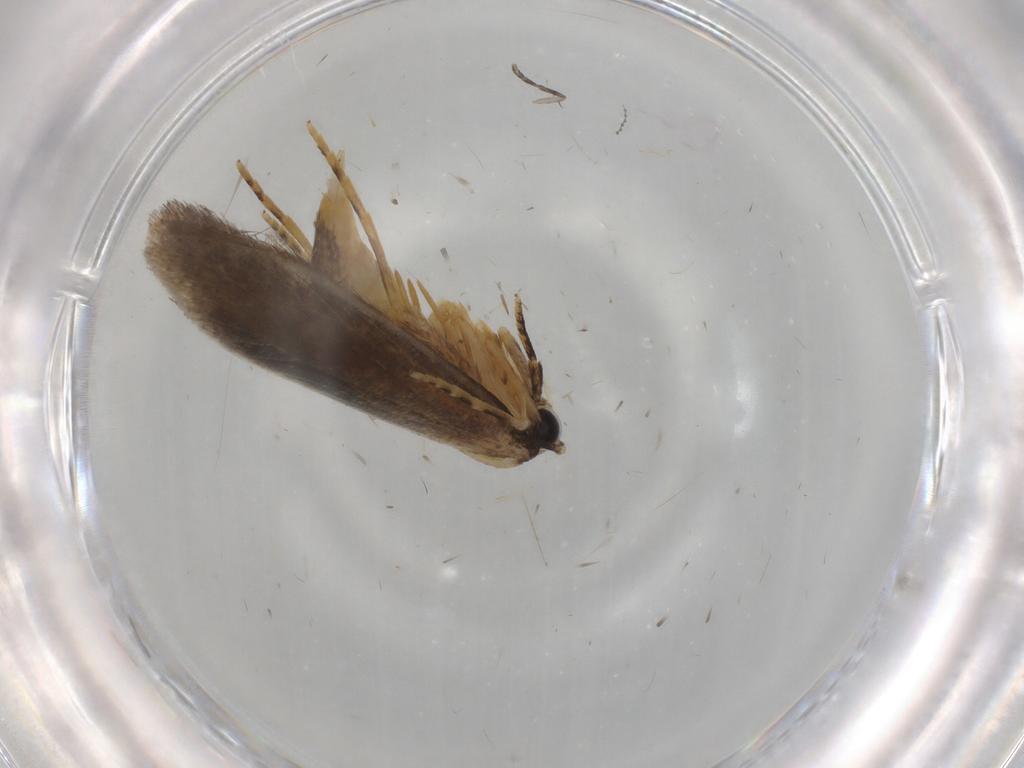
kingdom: Animalia
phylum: Arthropoda
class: Insecta
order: Lepidoptera
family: Tineidae
